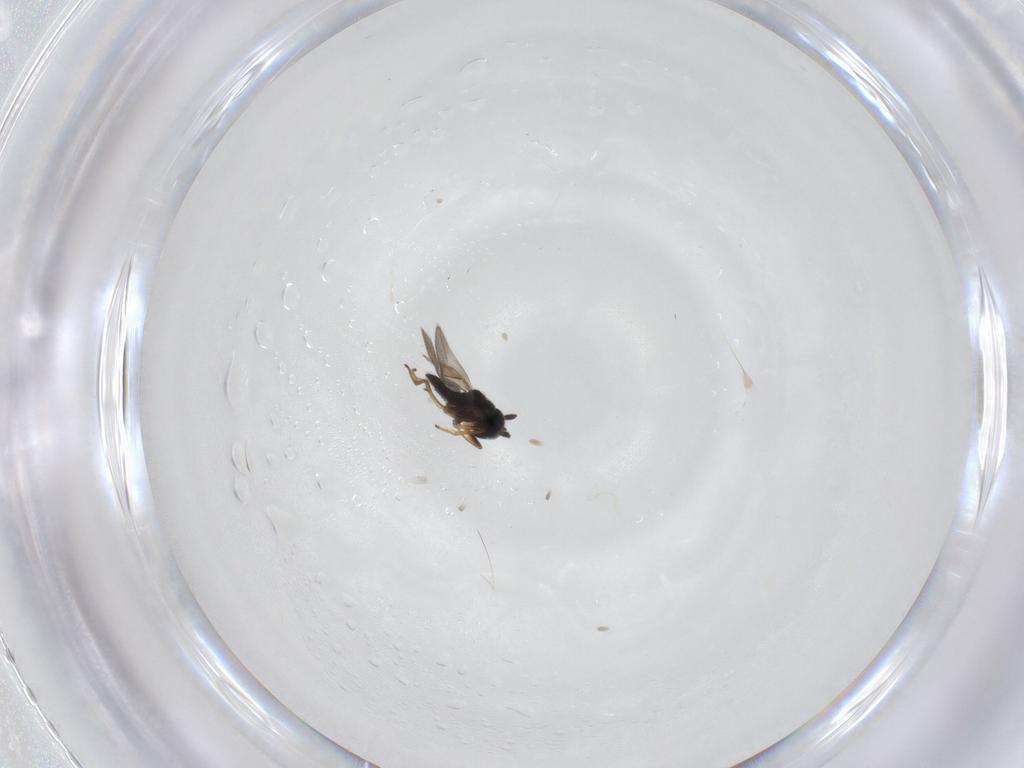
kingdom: Animalia
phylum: Arthropoda
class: Insecta
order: Diptera
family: Cecidomyiidae
